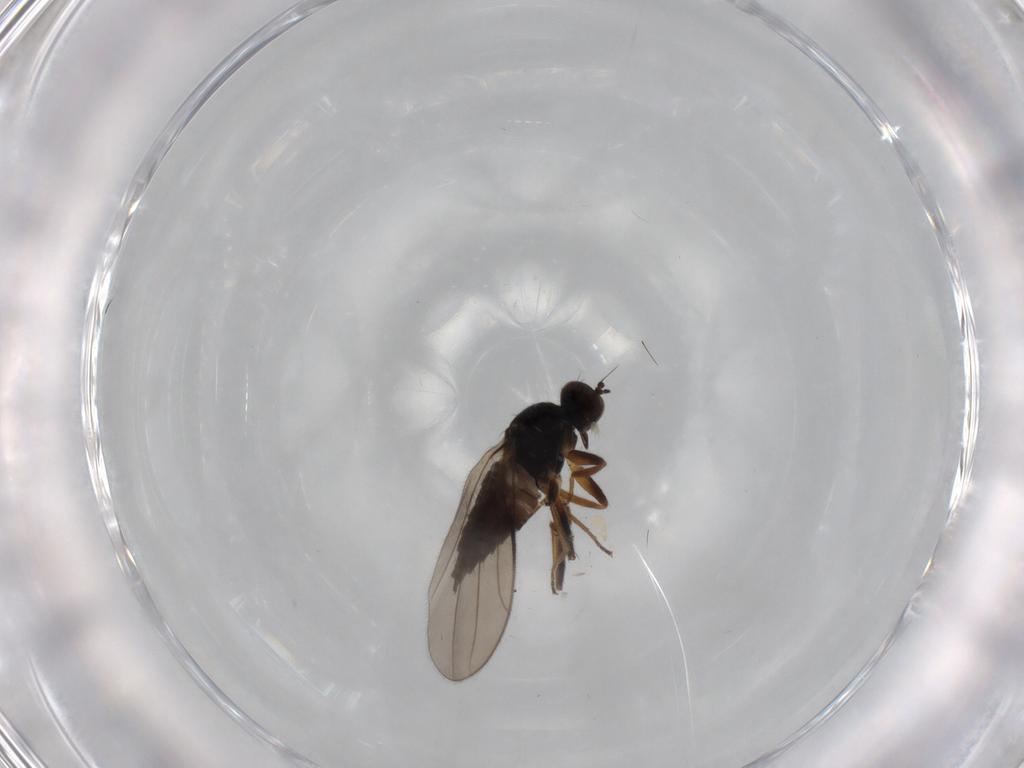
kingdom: Animalia
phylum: Arthropoda
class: Insecta
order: Diptera
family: Hybotidae
